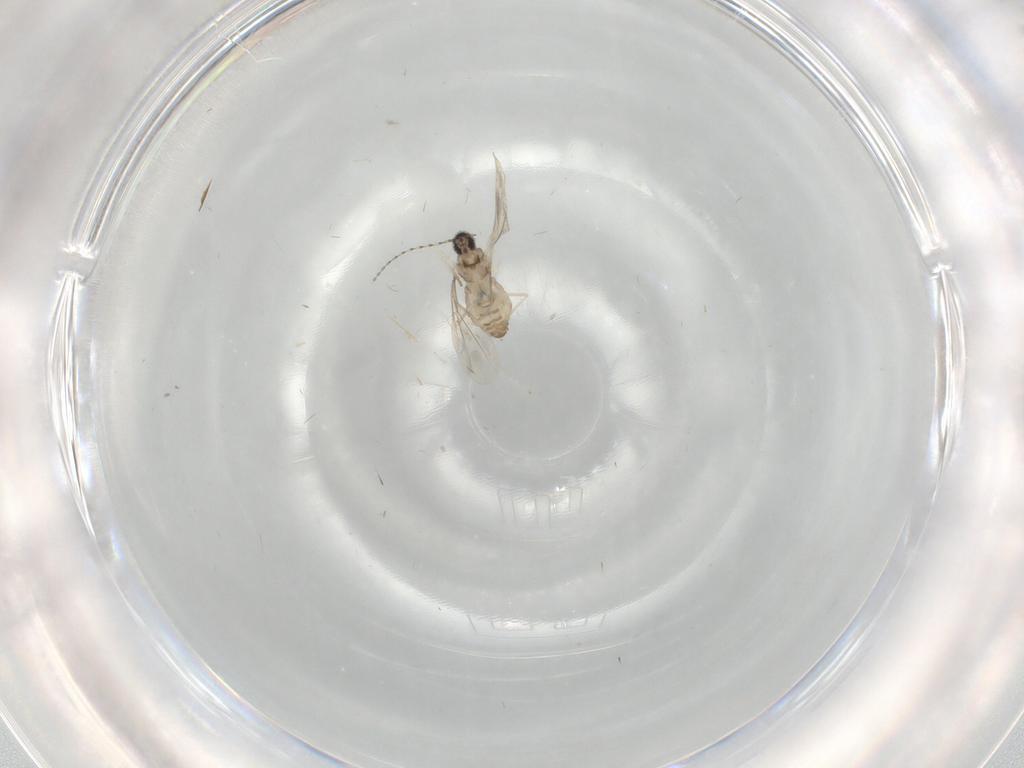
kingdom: Animalia
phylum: Arthropoda
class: Insecta
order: Diptera
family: Cecidomyiidae
